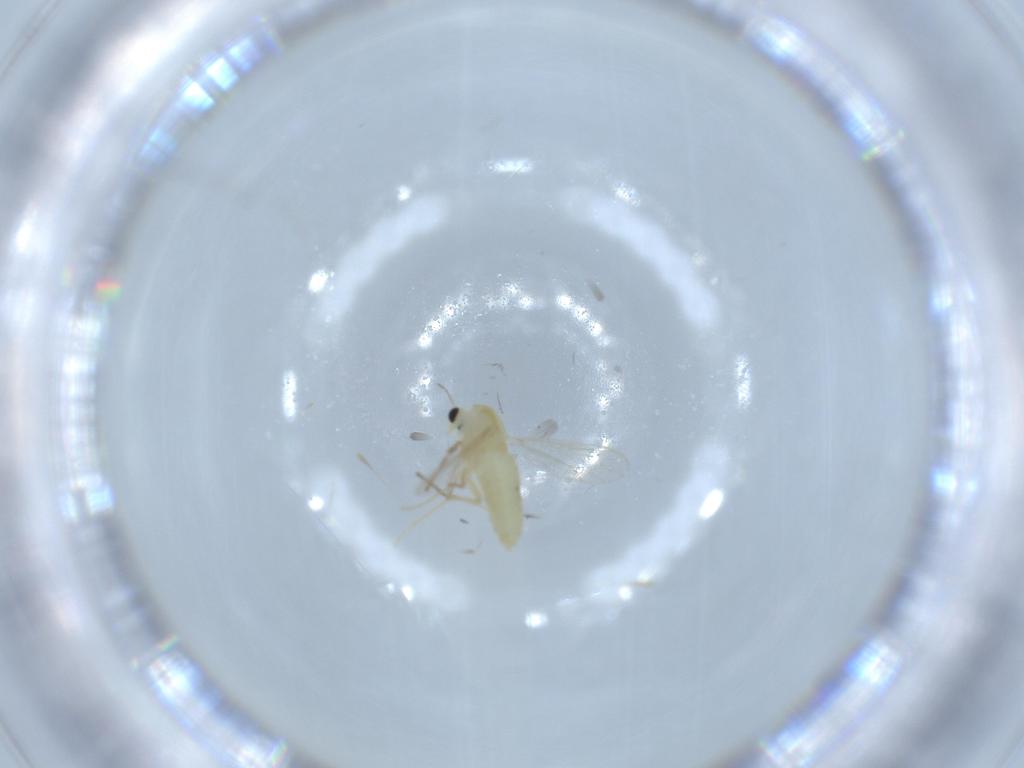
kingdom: Animalia
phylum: Arthropoda
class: Insecta
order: Diptera
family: Chironomidae
